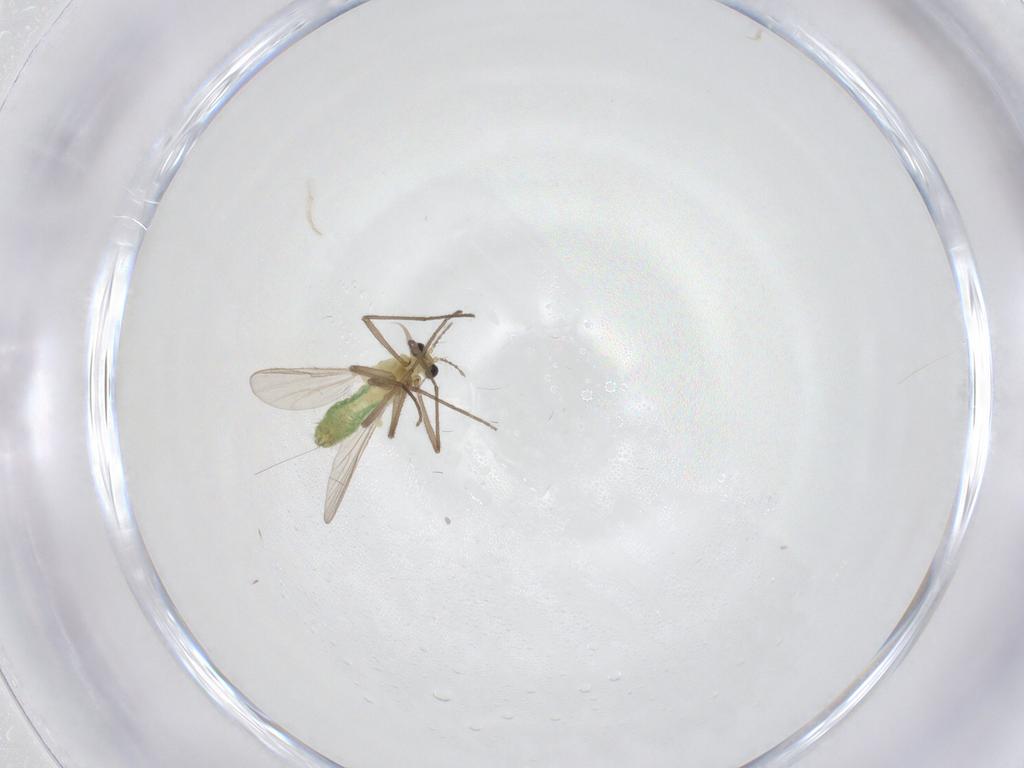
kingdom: Animalia
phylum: Arthropoda
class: Insecta
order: Diptera
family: Chironomidae
